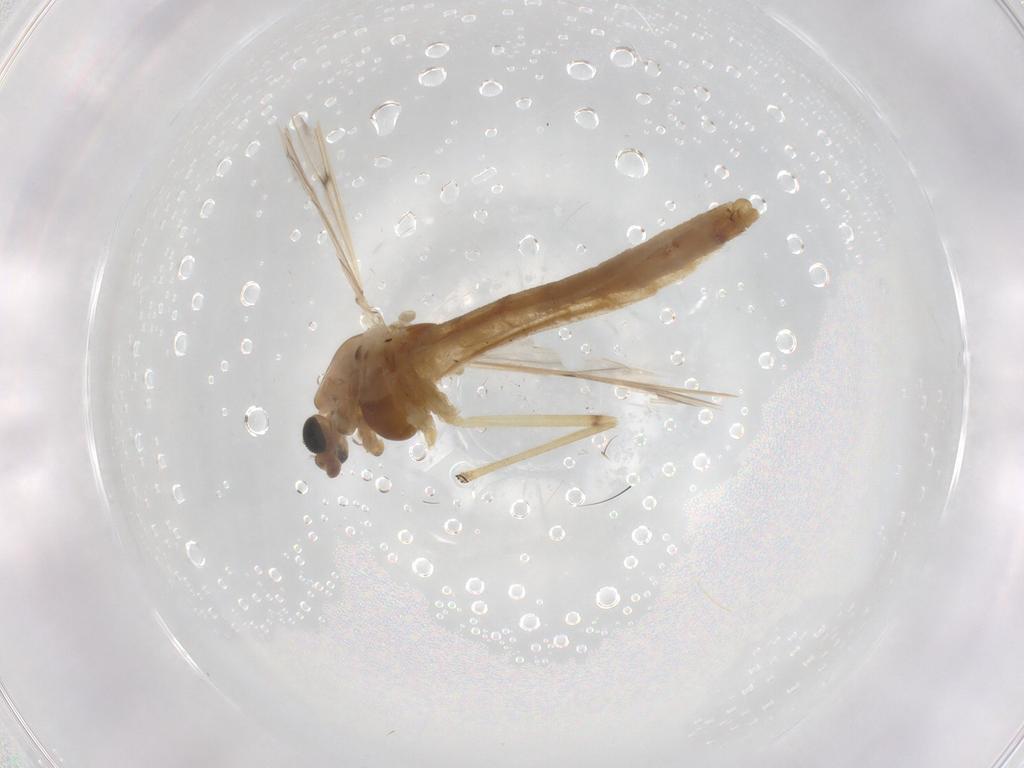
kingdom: Animalia
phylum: Arthropoda
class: Insecta
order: Diptera
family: Chironomidae
